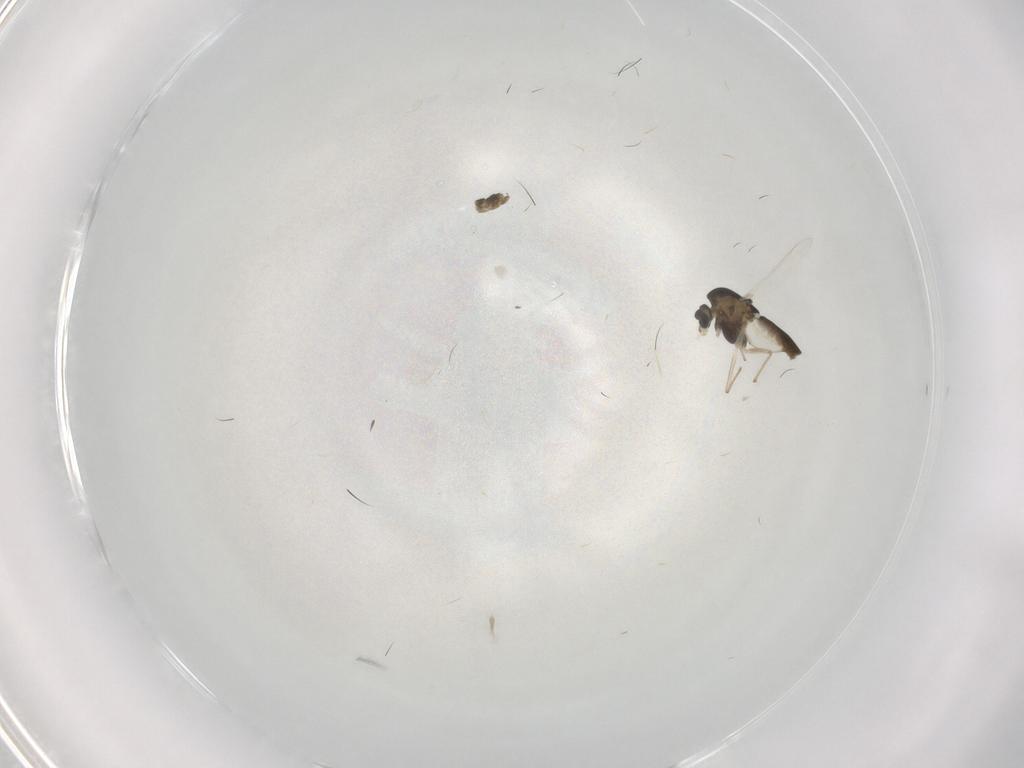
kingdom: Animalia
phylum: Arthropoda
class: Insecta
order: Diptera
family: Chironomidae
